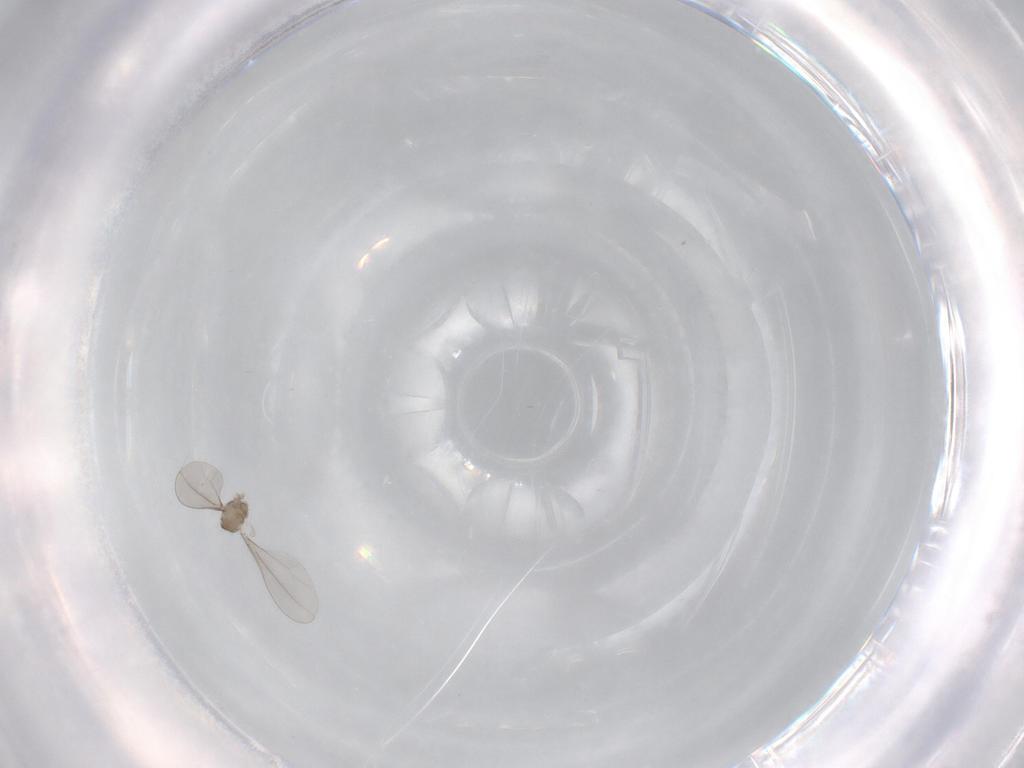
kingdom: Animalia
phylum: Arthropoda
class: Insecta
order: Diptera
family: Cecidomyiidae
